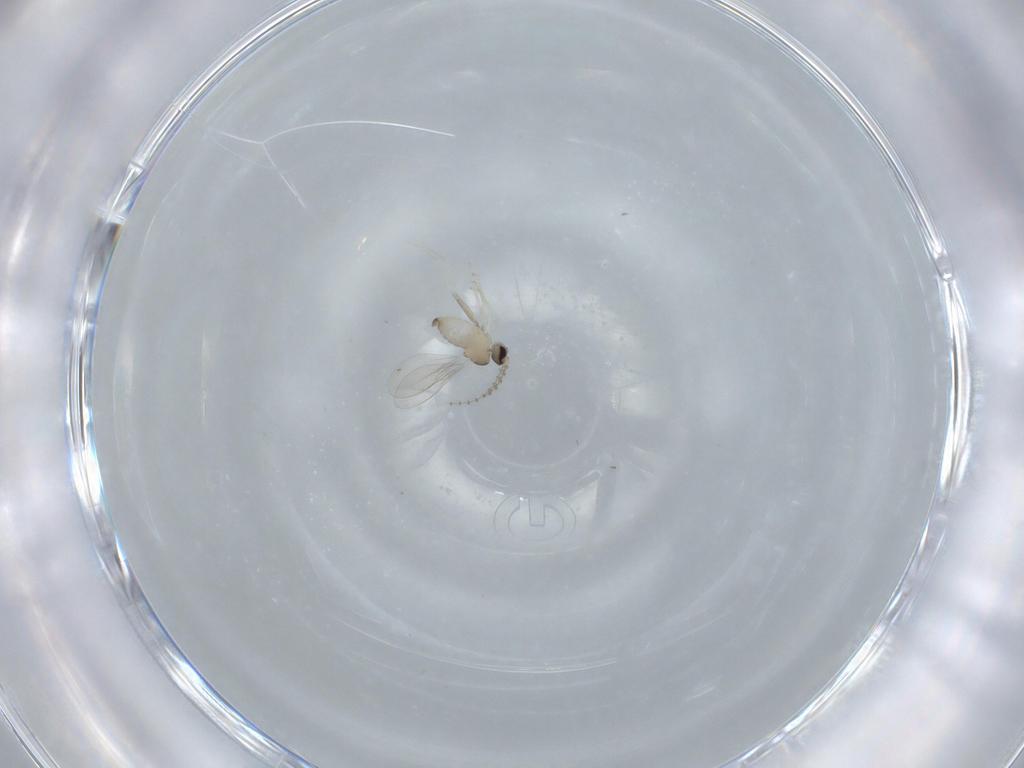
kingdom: Animalia
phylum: Arthropoda
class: Insecta
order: Diptera
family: Cecidomyiidae
